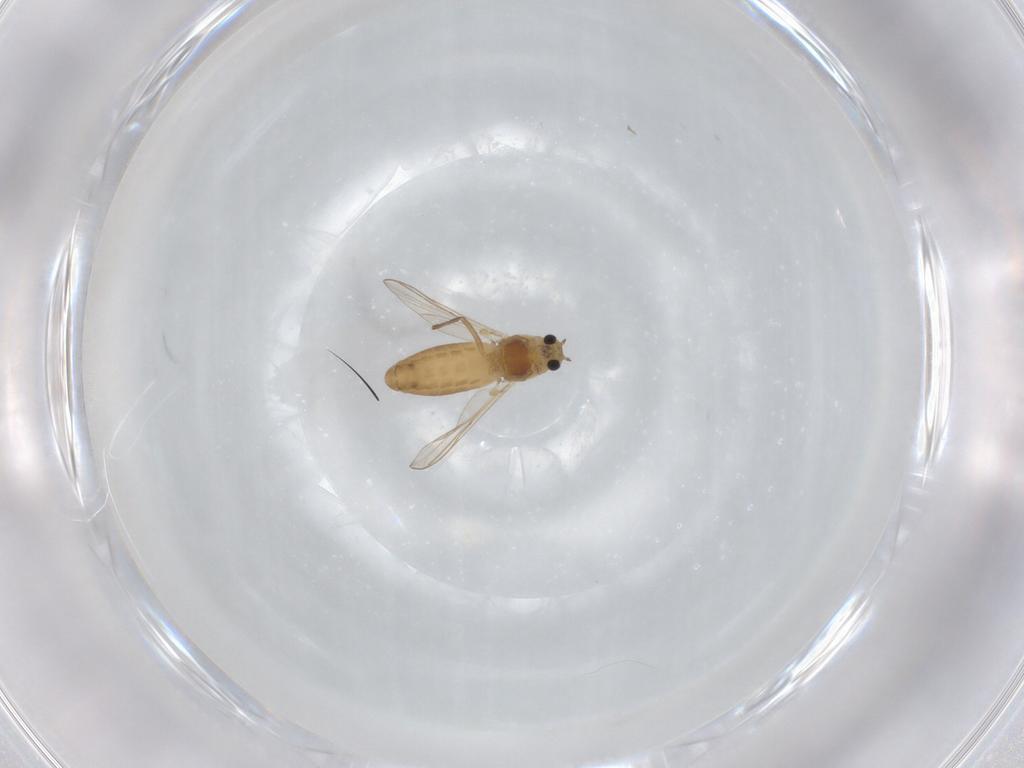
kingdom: Animalia
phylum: Arthropoda
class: Insecta
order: Diptera
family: Chironomidae
